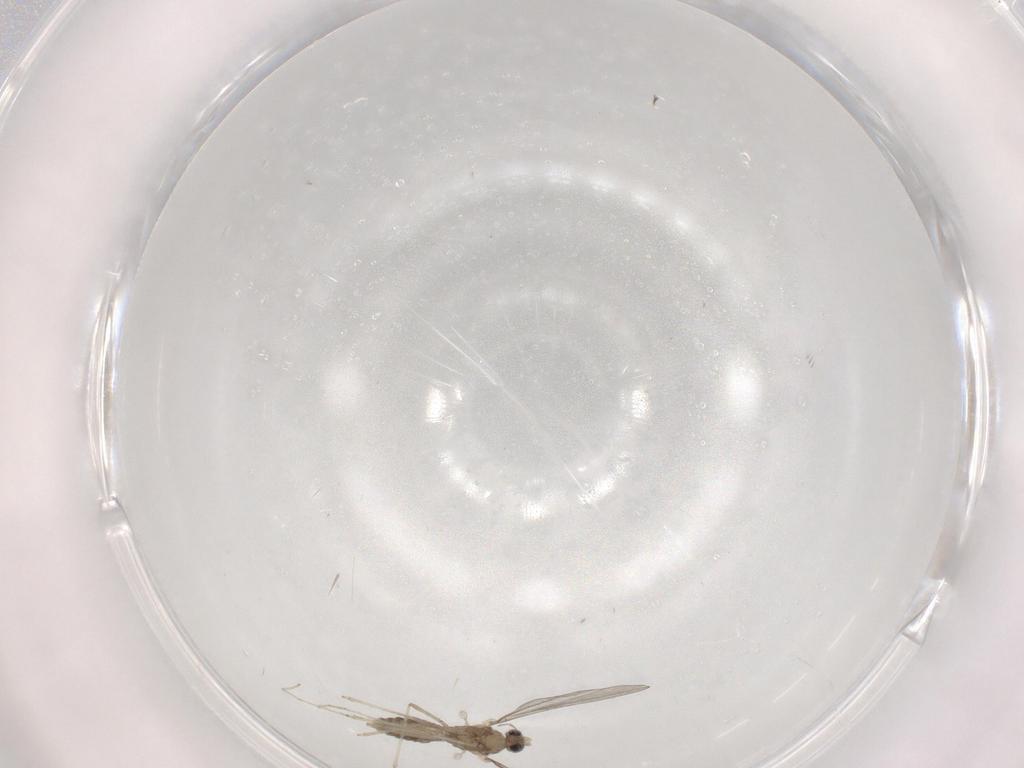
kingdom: Animalia
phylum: Arthropoda
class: Insecta
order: Diptera
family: Cecidomyiidae
